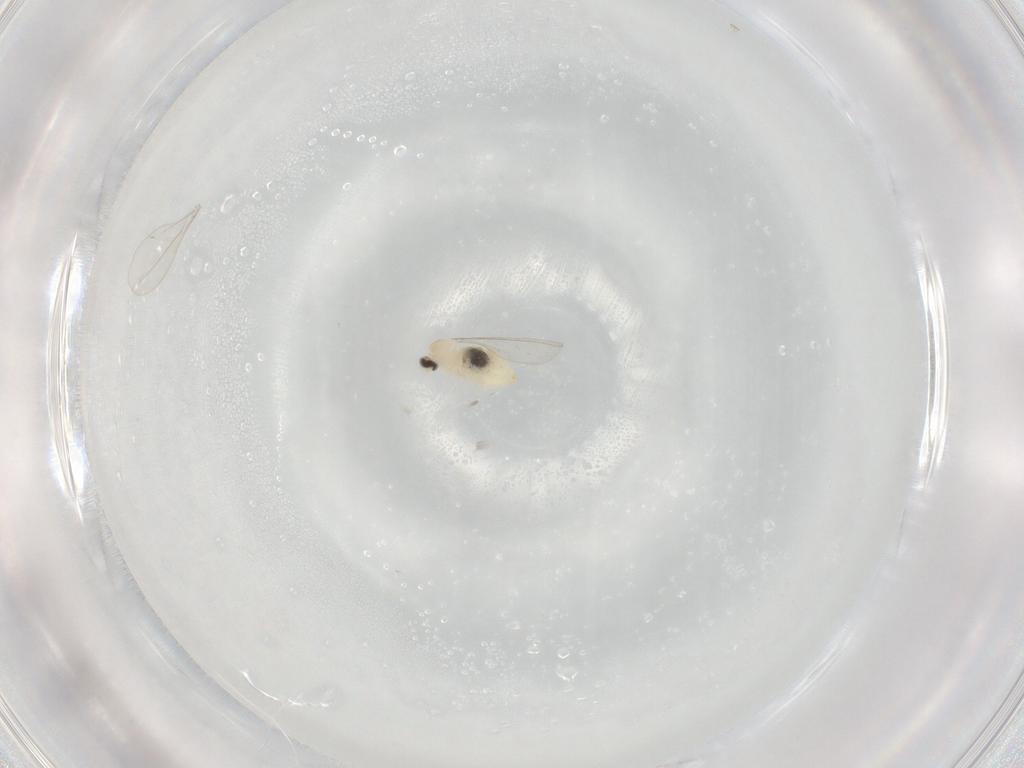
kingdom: Animalia
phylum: Arthropoda
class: Insecta
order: Diptera
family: Cecidomyiidae
